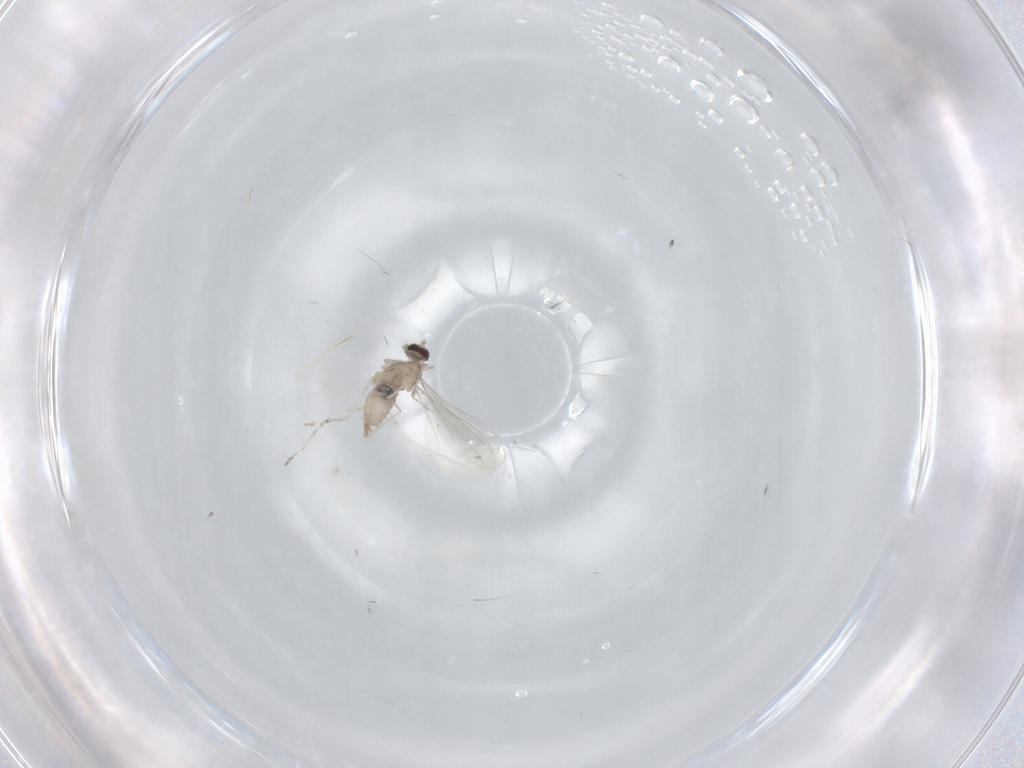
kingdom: Animalia
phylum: Arthropoda
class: Insecta
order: Diptera
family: Cecidomyiidae
